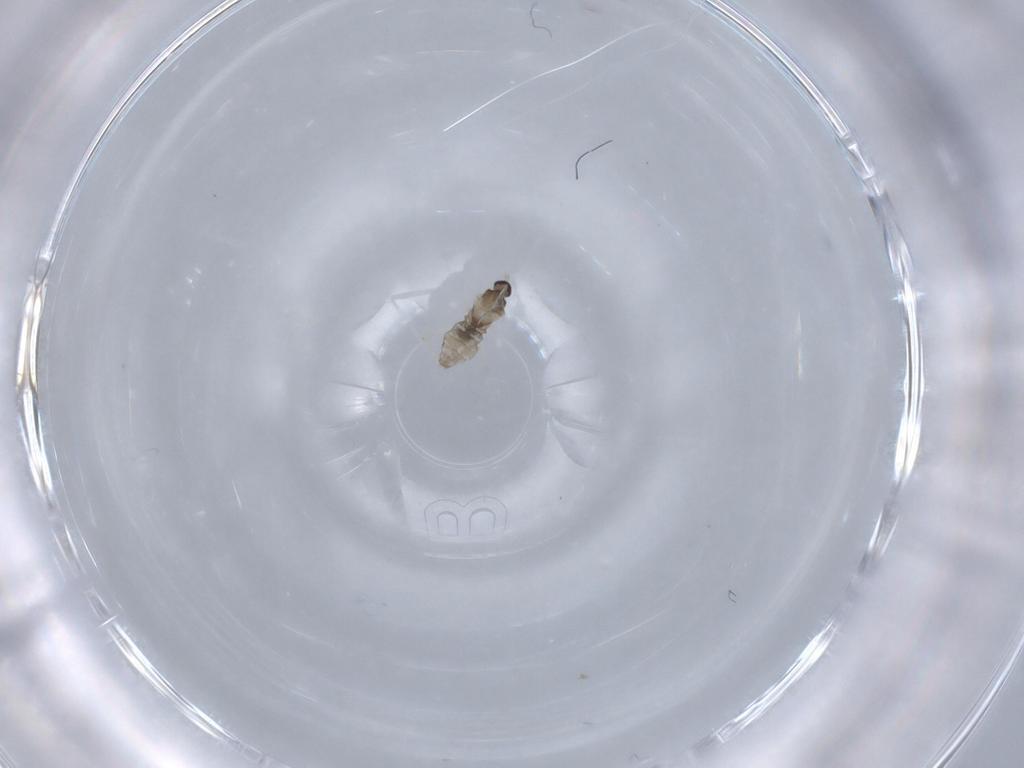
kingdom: Animalia
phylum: Arthropoda
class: Insecta
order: Diptera
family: Cecidomyiidae
